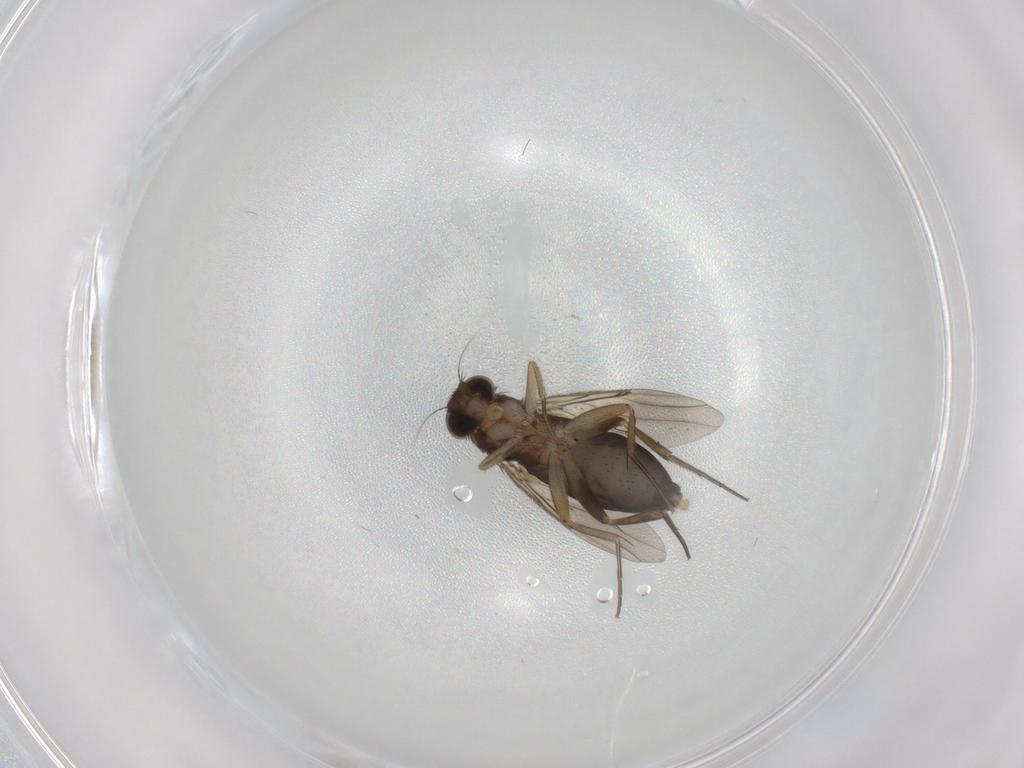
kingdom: Animalia
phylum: Arthropoda
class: Insecta
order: Diptera
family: Phoridae
